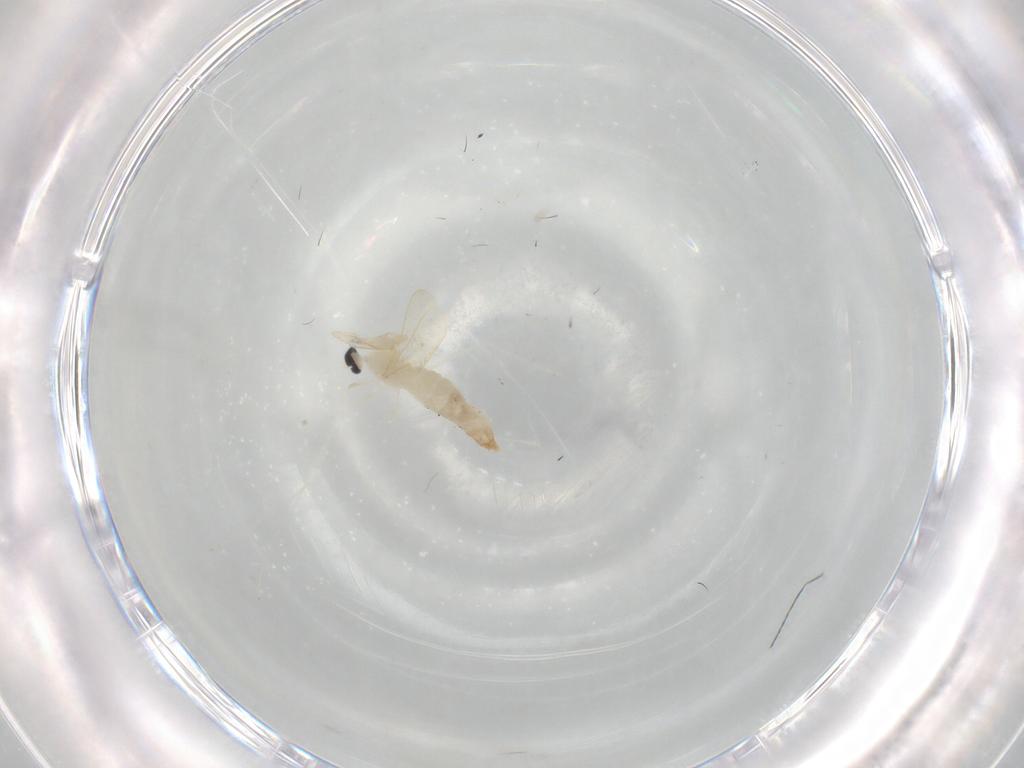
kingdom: Animalia
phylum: Arthropoda
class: Insecta
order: Diptera
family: Cecidomyiidae
